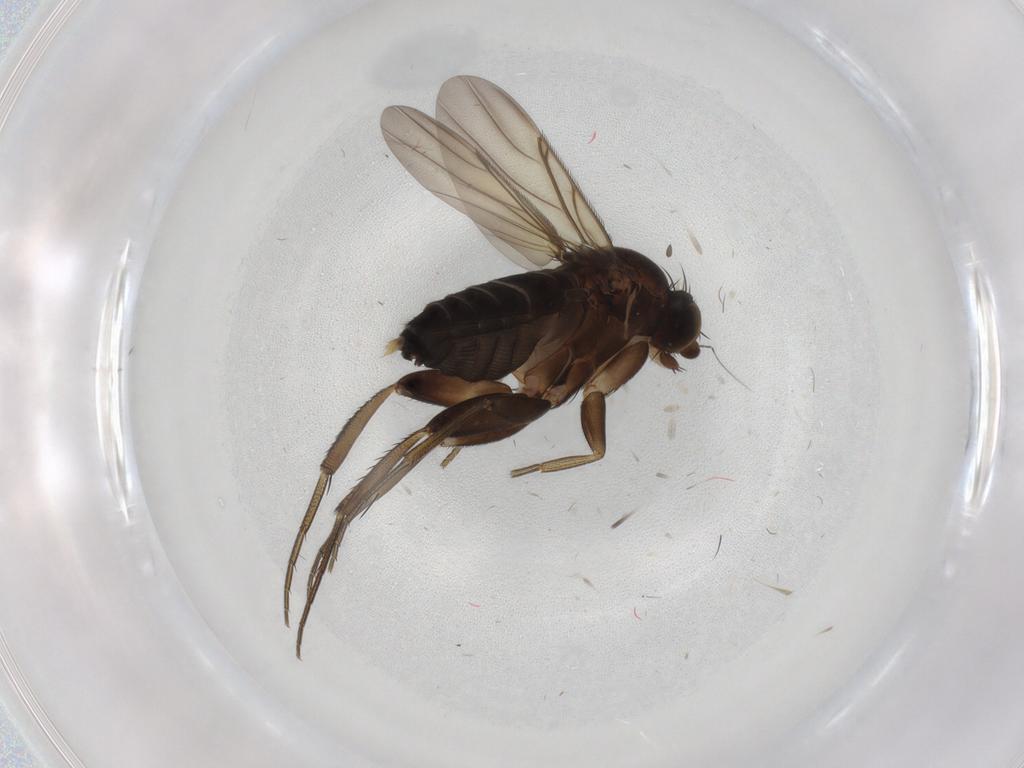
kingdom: Animalia
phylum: Arthropoda
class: Insecta
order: Diptera
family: Phoridae
